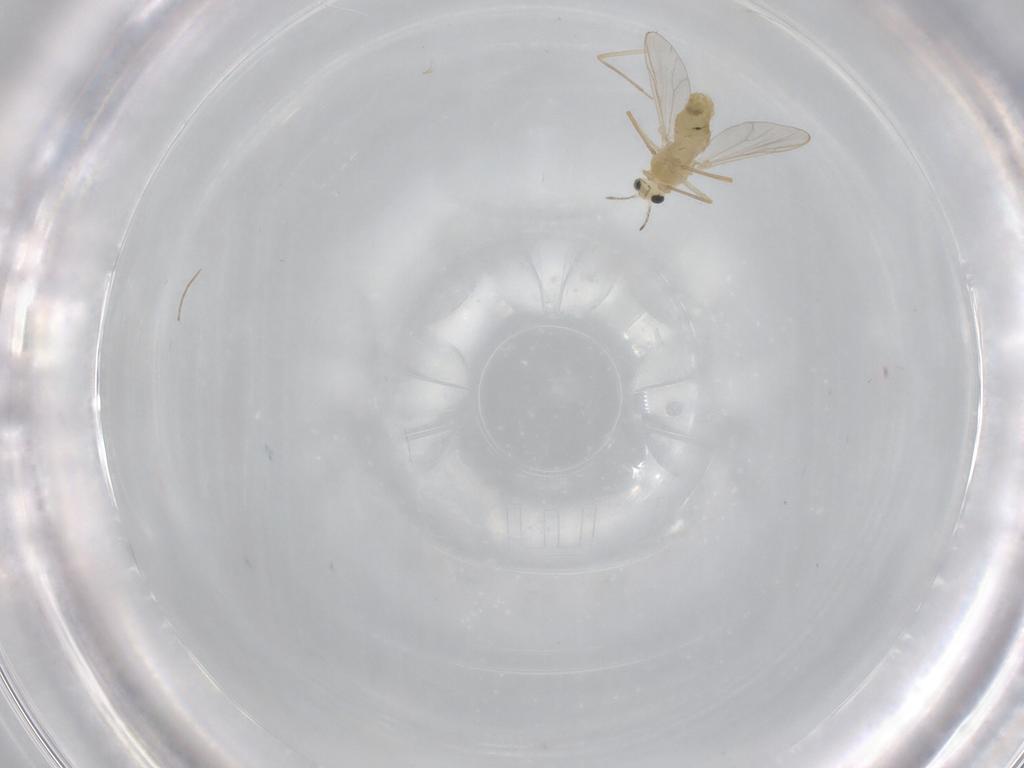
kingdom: Animalia
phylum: Arthropoda
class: Insecta
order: Diptera
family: Chironomidae
